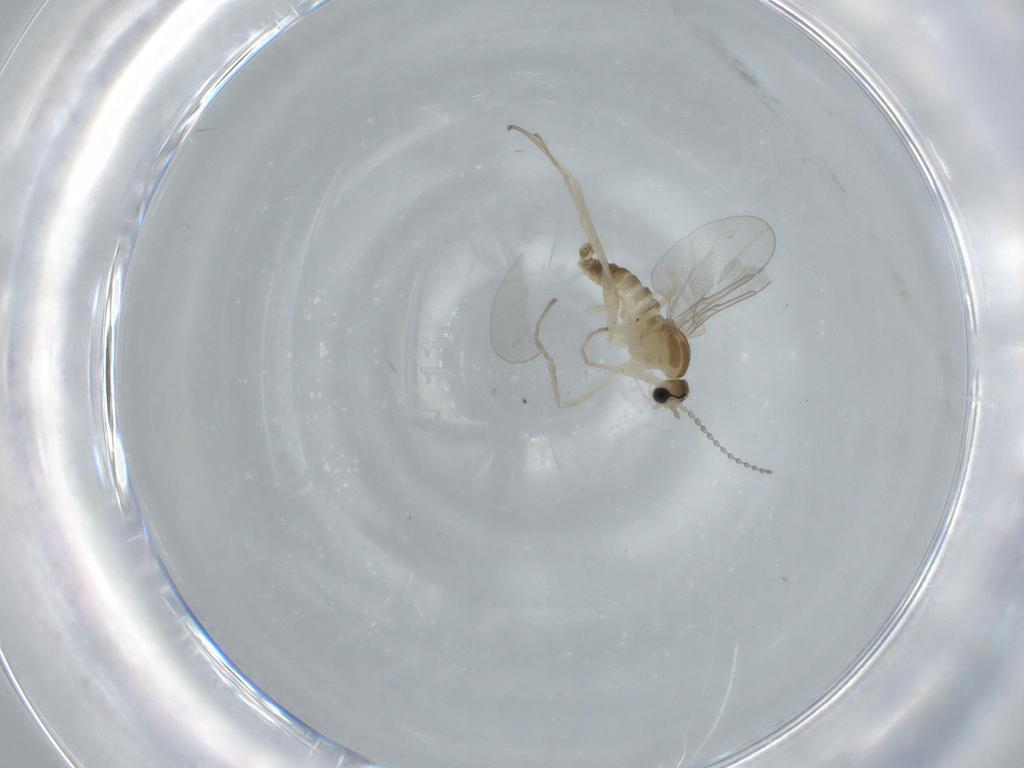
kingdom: Animalia
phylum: Arthropoda
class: Insecta
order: Diptera
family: Cecidomyiidae
